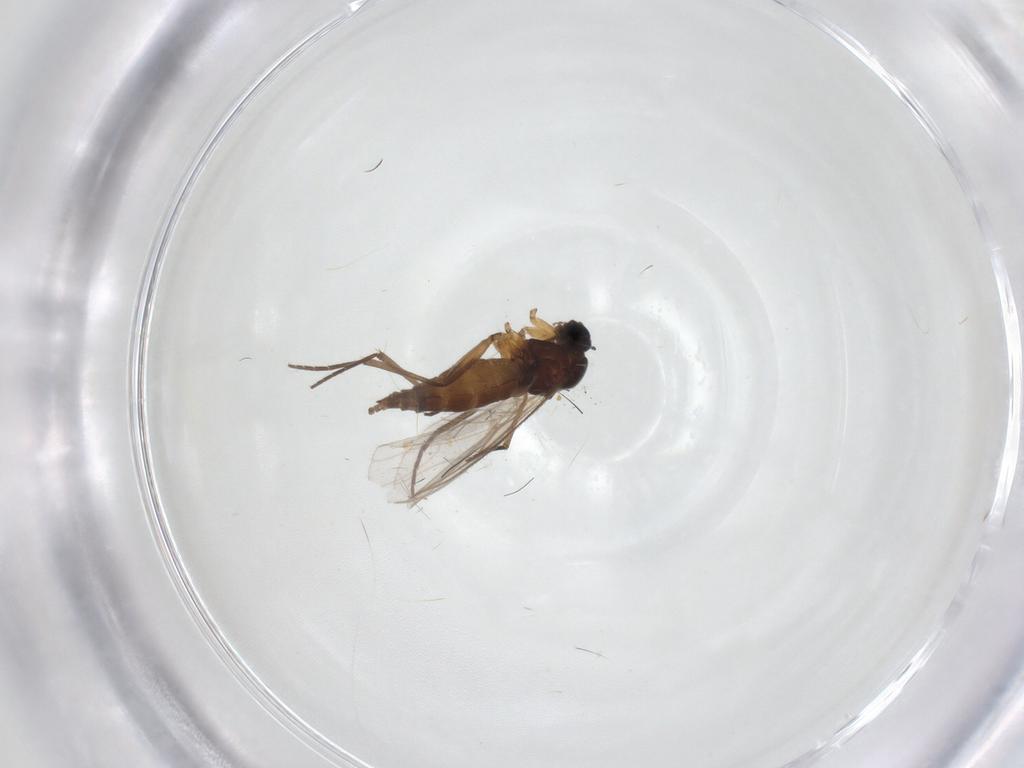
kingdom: Animalia
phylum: Arthropoda
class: Insecta
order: Diptera
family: Sciaridae
